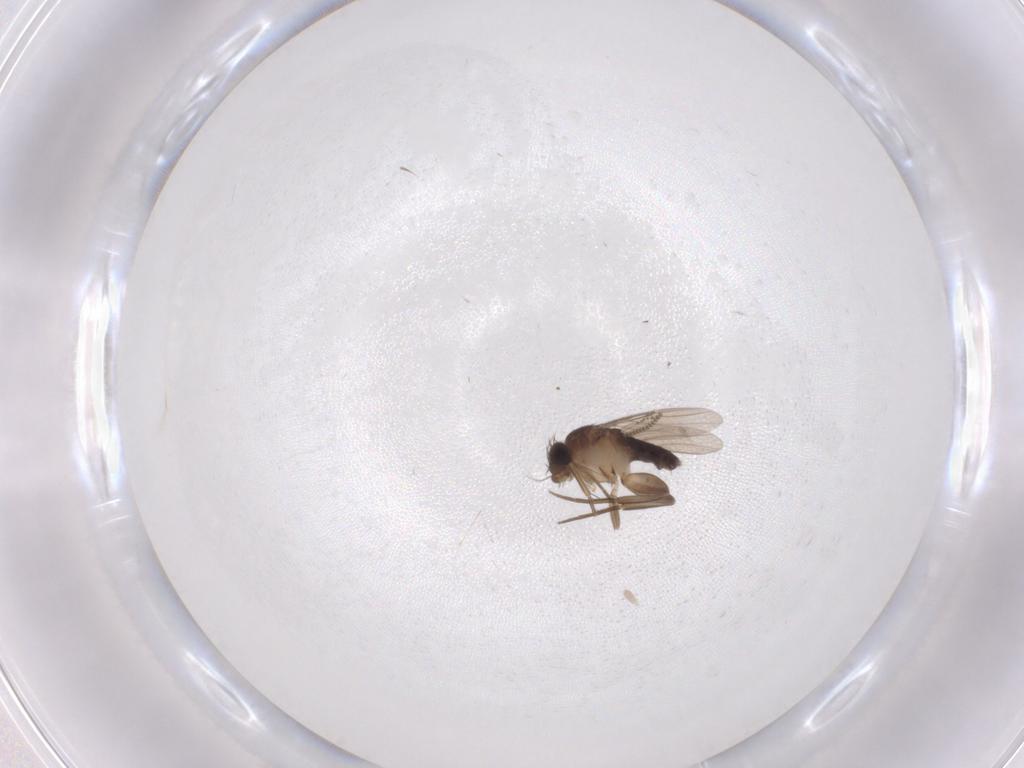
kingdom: Animalia
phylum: Arthropoda
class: Insecta
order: Diptera
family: Phoridae
